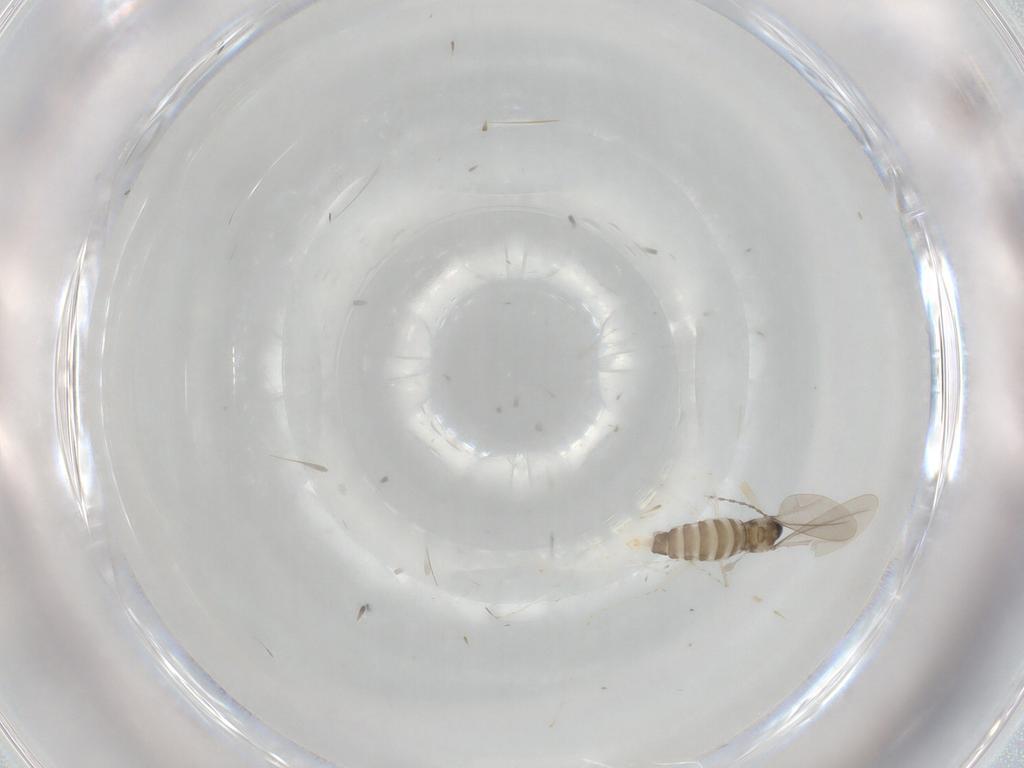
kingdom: Animalia
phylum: Arthropoda
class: Insecta
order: Diptera
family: Cecidomyiidae
